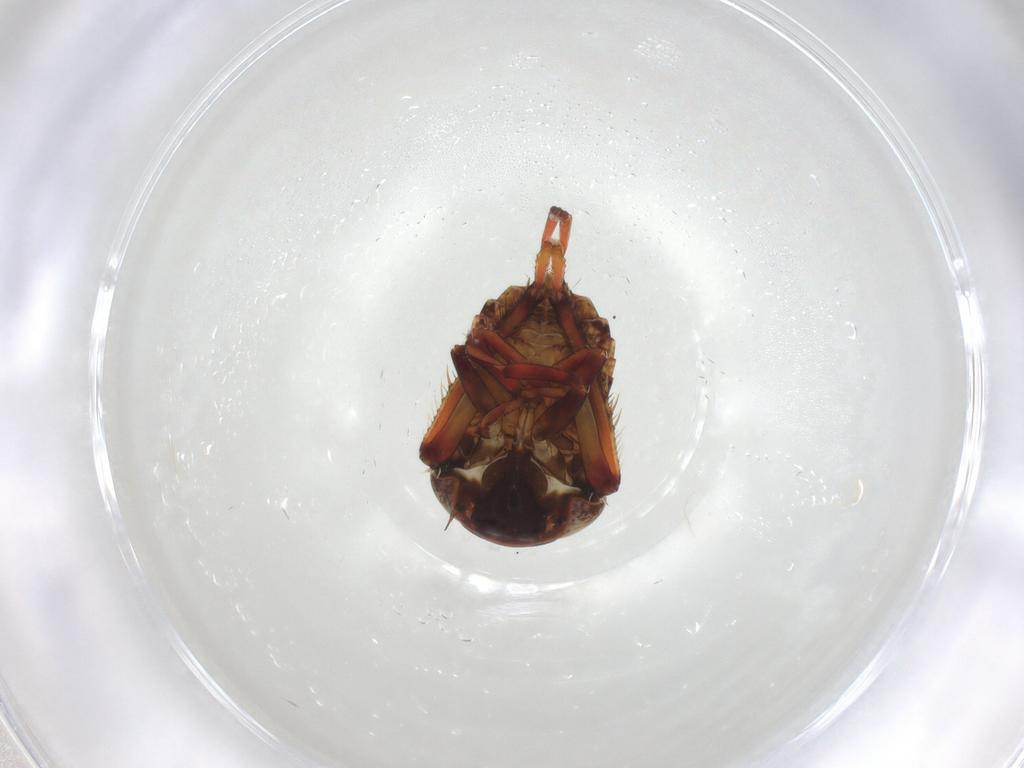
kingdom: Animalia
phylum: Arthropoda
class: Insecta
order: Hemiptera
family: Cicadellidae
